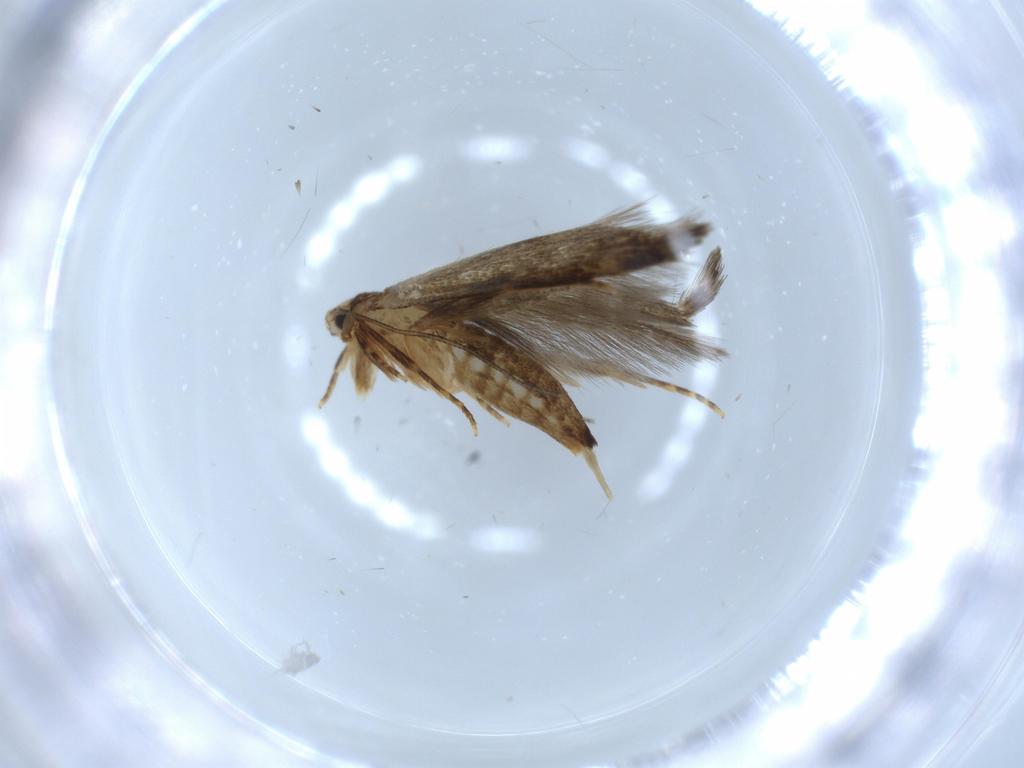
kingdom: Animalia
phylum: Arthropoda
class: Insecta
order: Lepidoptera
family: Tineidae
